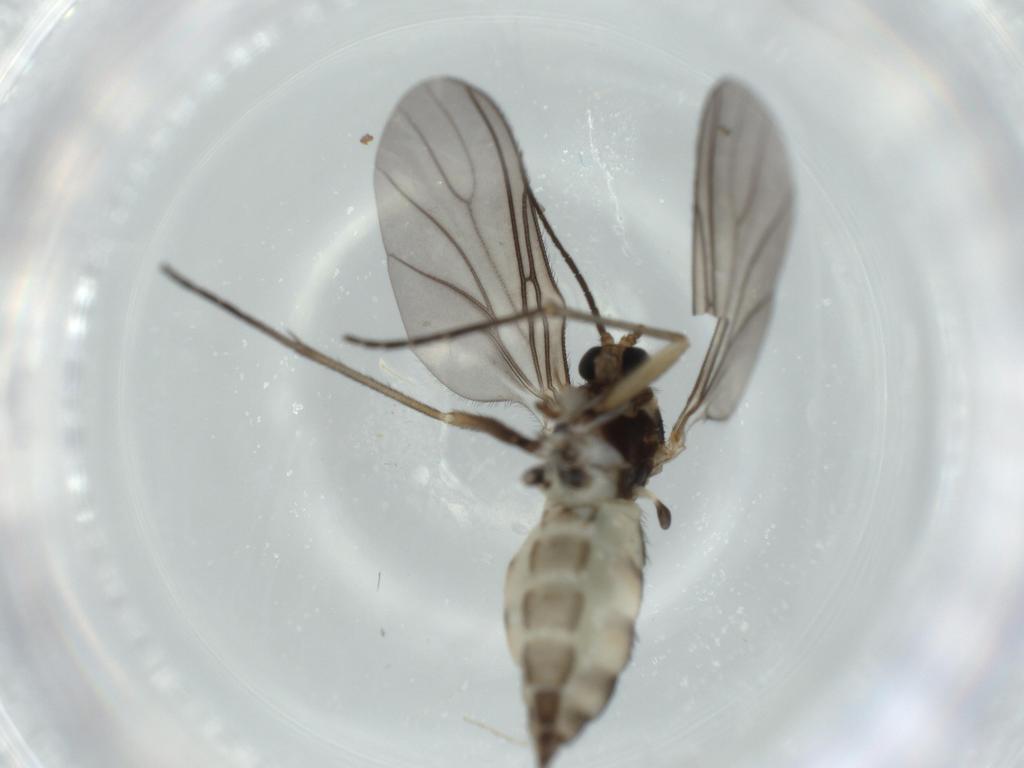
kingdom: Animalia
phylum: Arthropoda
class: Insecta
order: Diptera
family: Sciaridae
